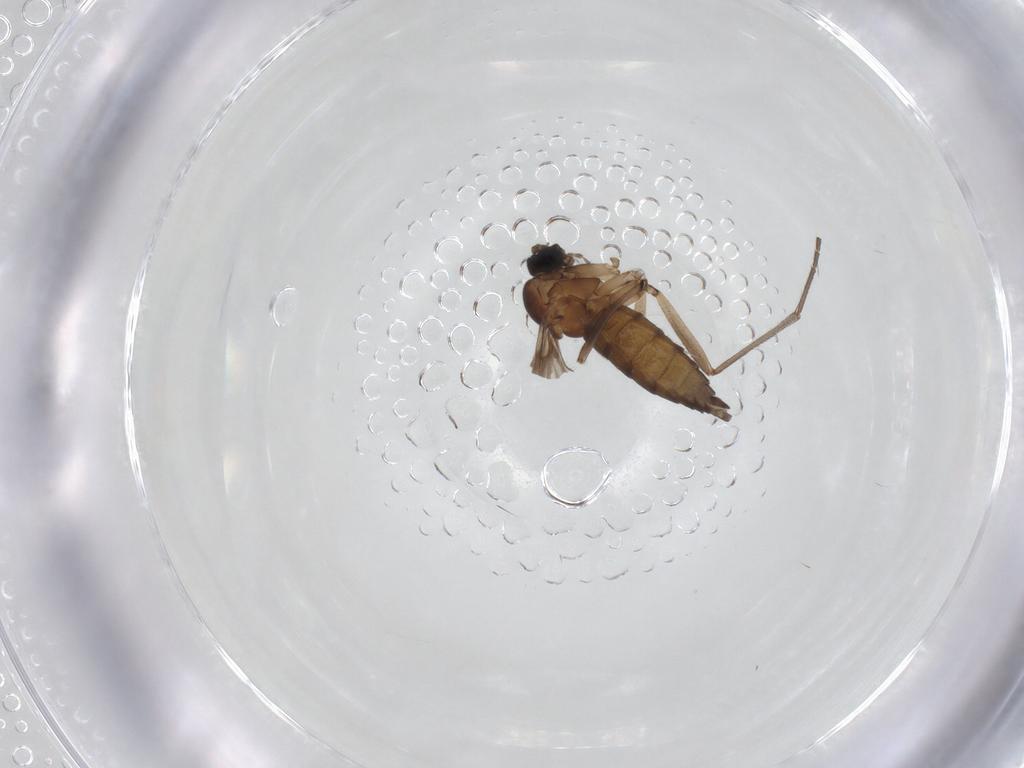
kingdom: Animalia
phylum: Arthropoda
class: Insecta
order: Diptera
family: Sciaridae
